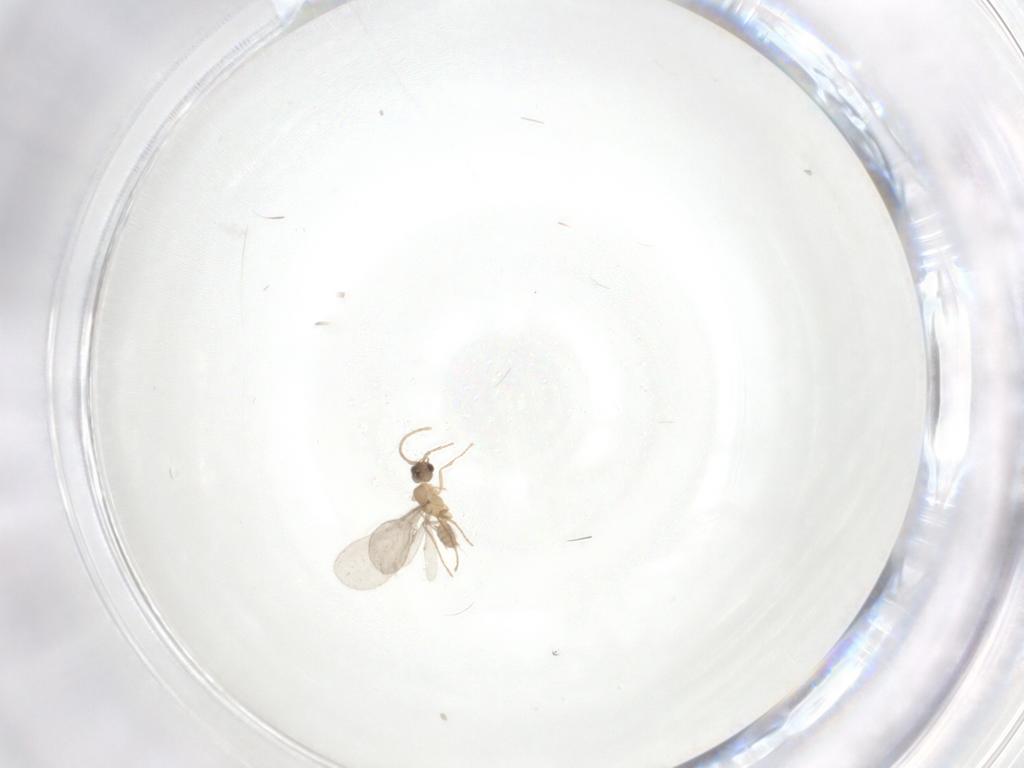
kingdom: Animalia
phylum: Arthropoda
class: Insecta
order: Hymenoptera
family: Formicidae
